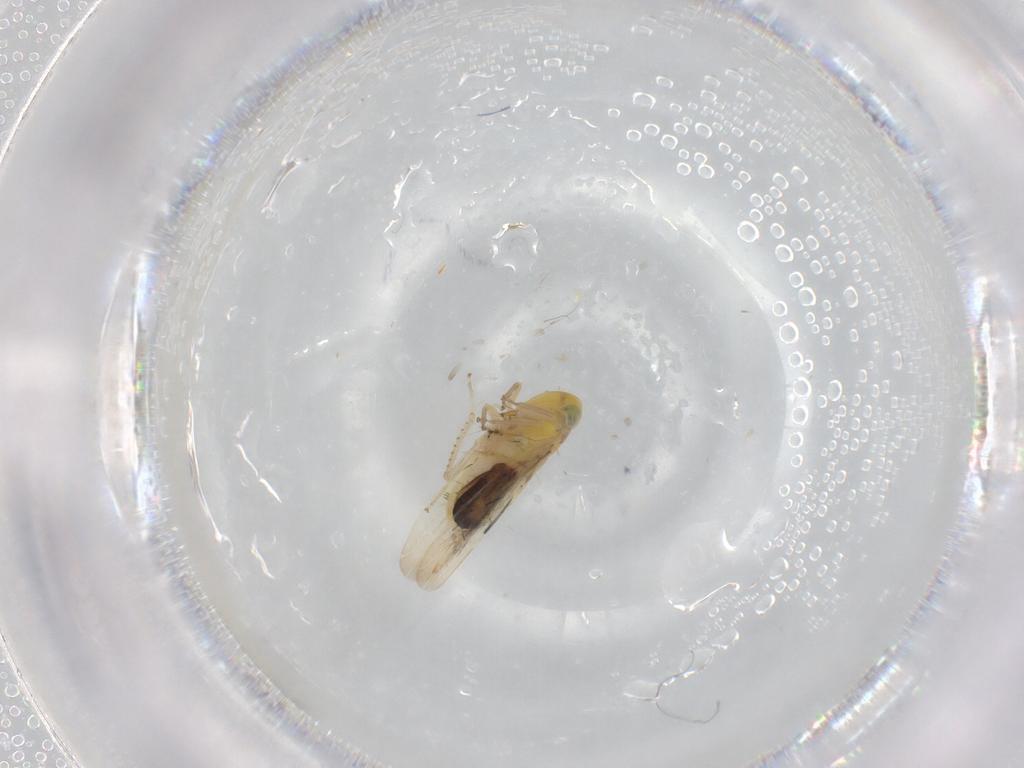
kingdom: Animalia
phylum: Arthropoda
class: Insecta
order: Hemiptera
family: Cicadellidae
